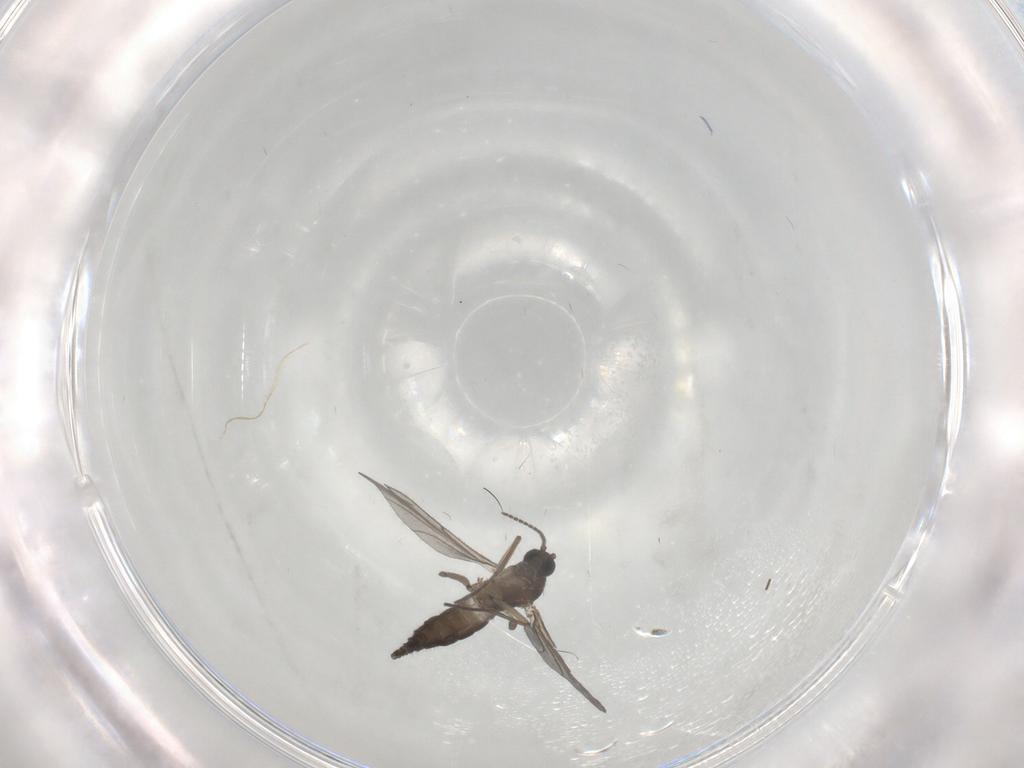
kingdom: Animalia
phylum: Arthropoda
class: Insecta
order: Diptera
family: Sciaridae
